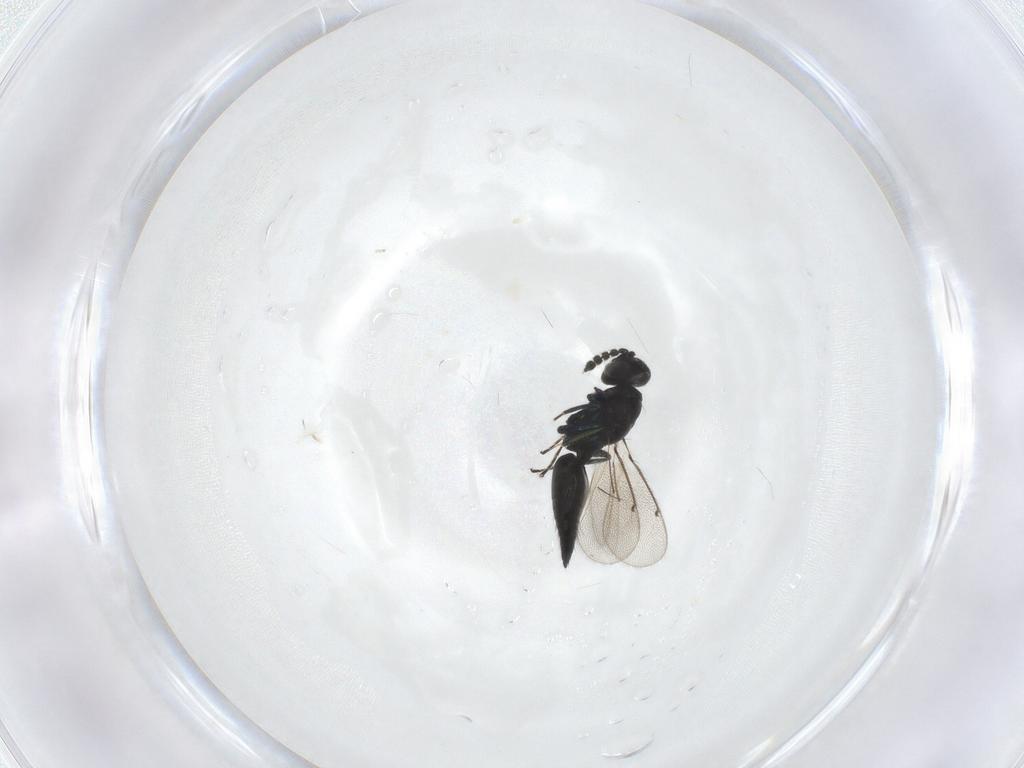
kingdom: Animalia
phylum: Arthropoda
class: Insecta
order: Hymenoptera
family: Eulophidae
